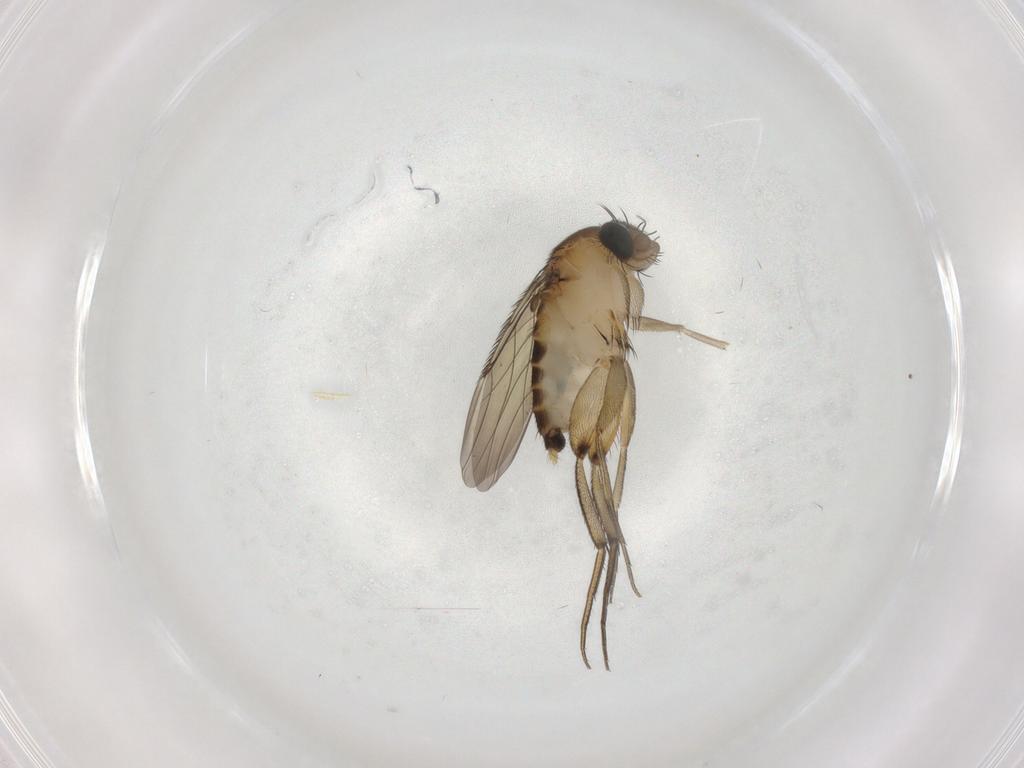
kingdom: Animalia
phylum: Arthropoda
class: Insecta
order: Diptera
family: Phoridae
